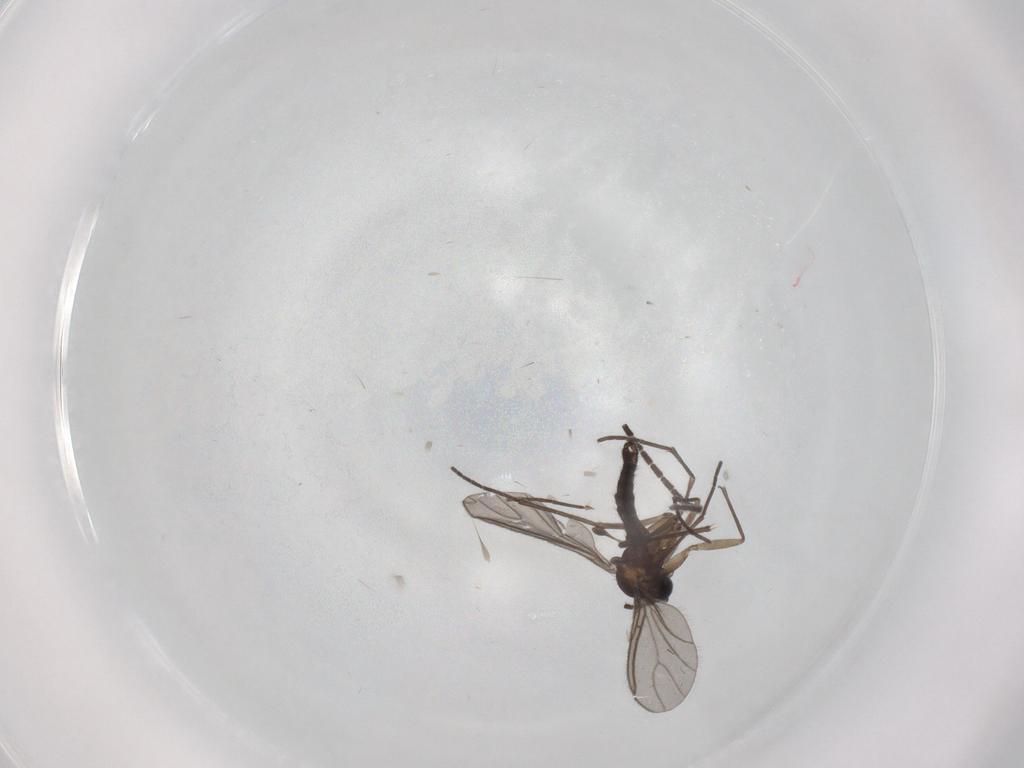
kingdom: Animalia
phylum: Arthropoda
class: Insecta
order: Diptera
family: Sciaridae
